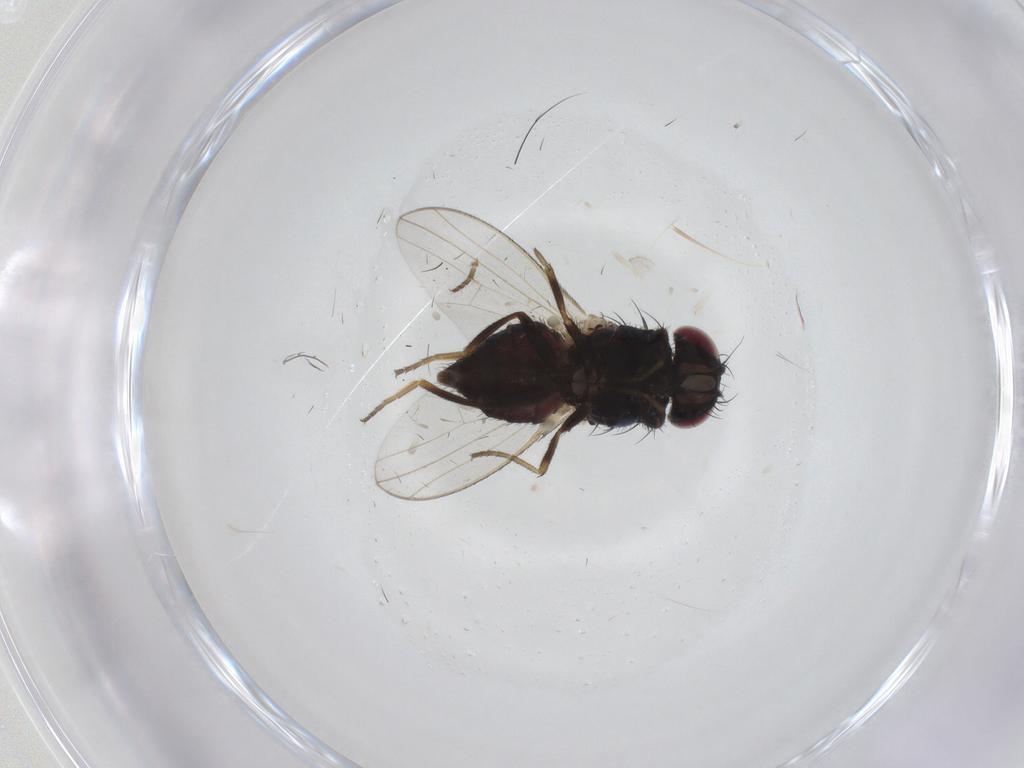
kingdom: Animalia
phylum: Arthropoda
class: Insecta
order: Diptera
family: Carnidae
